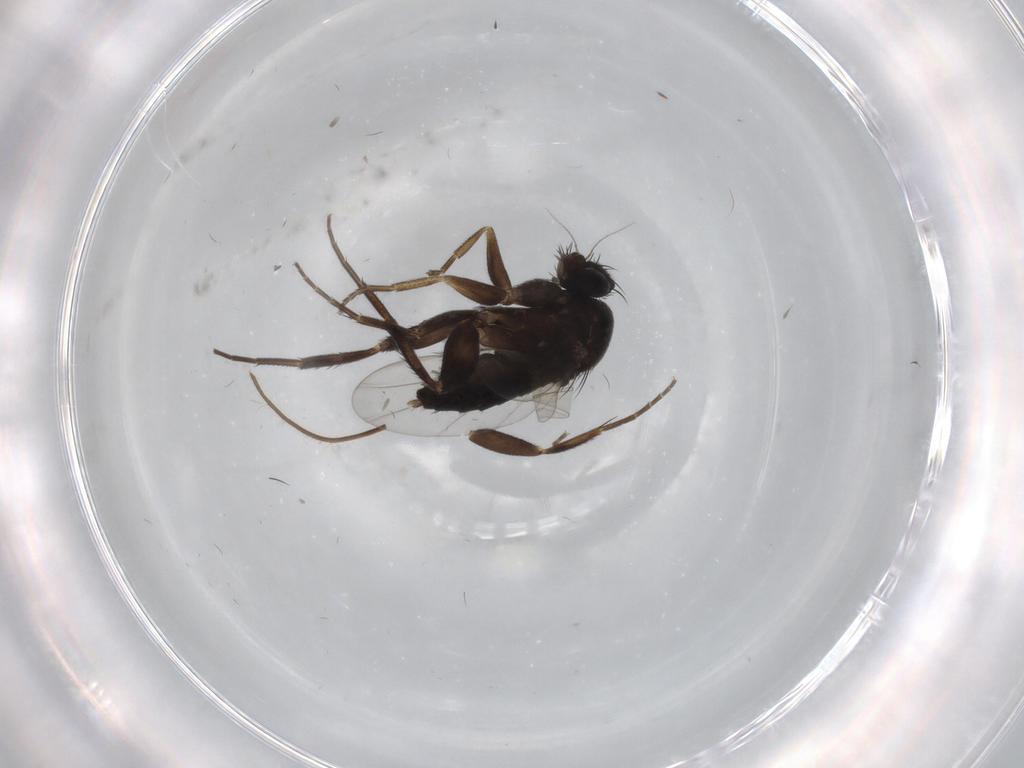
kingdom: Animalia
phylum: Arthropoda
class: Insecta
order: Diptera
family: Phoridae
